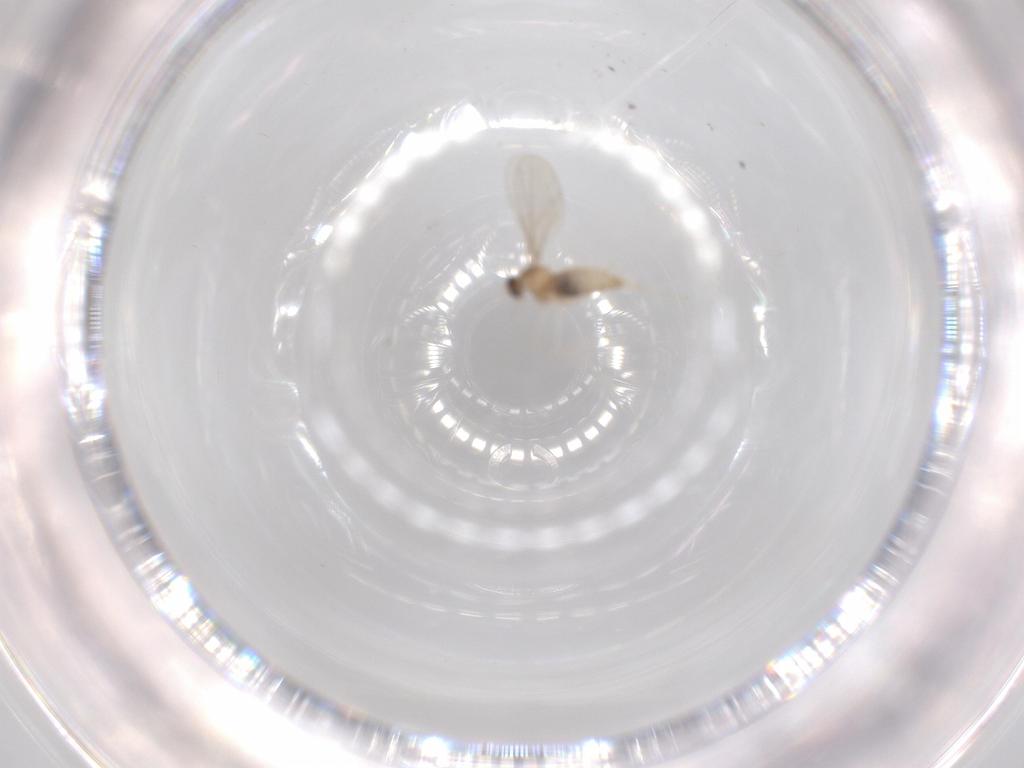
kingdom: Animalia
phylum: Arthropoda
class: Insecta
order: Diptera
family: Cecidomyiidae
